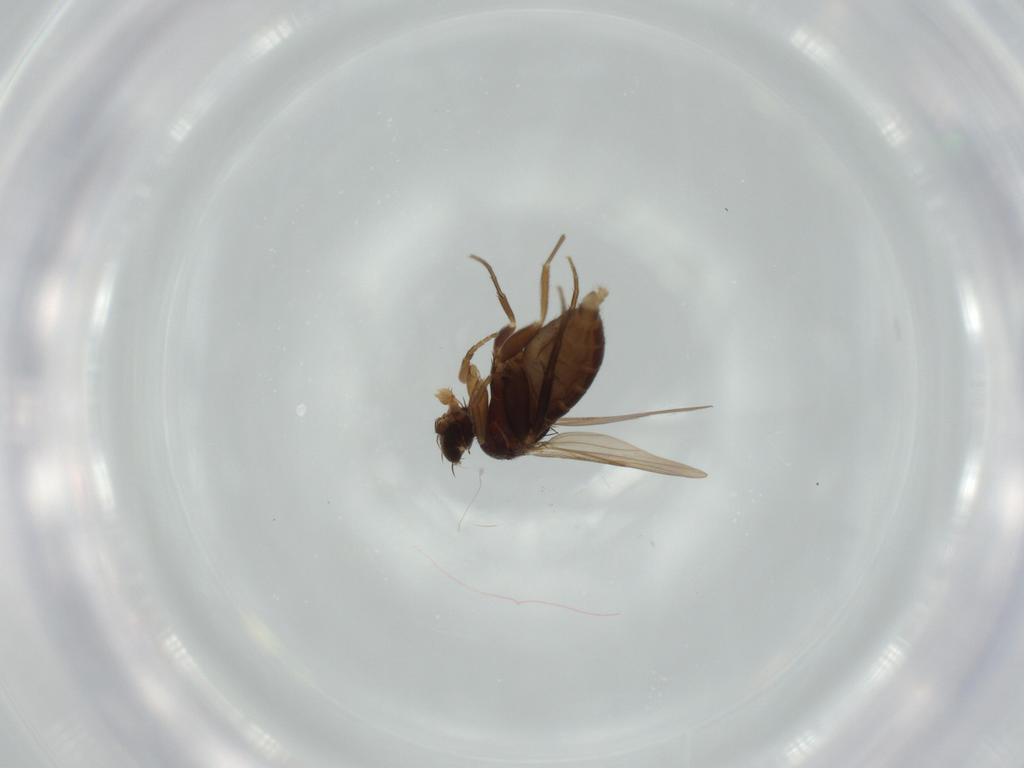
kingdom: Animalia
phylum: Arthropoda
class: Insecta
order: Diptera
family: Phoridae
